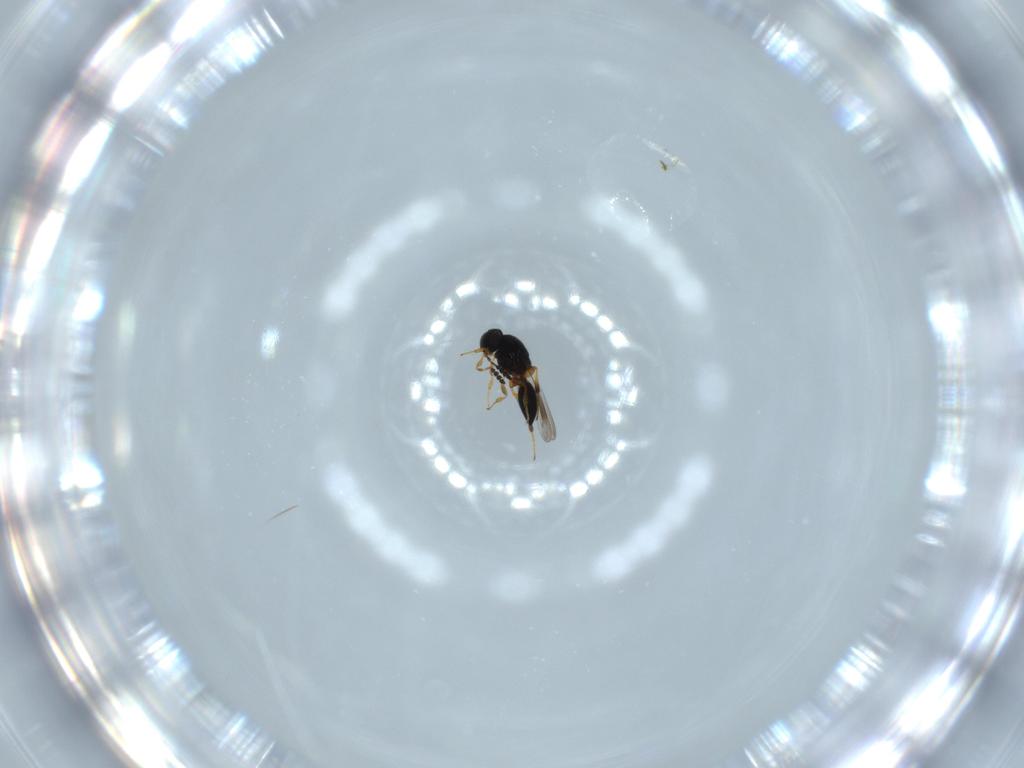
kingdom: Animalia
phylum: Arthropoda
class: Insecta
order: Hymenoptera
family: Platygastridae
